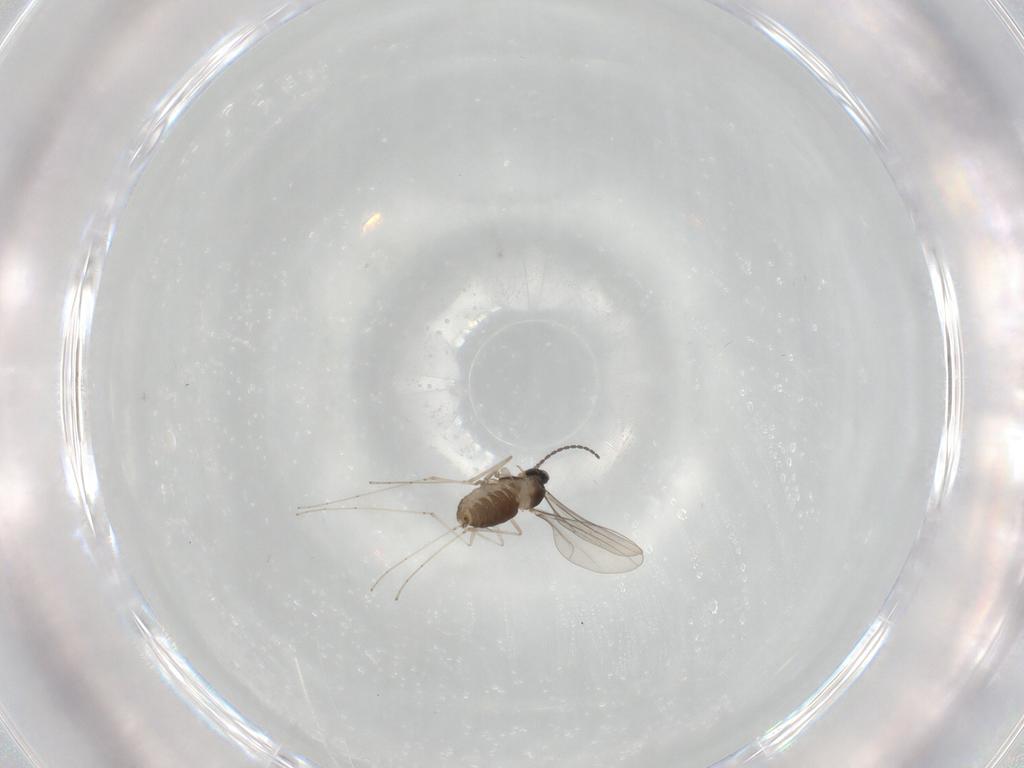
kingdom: Animalia
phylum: Arthropoda
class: Insecta
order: Diptera
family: Cecidomyiidae
